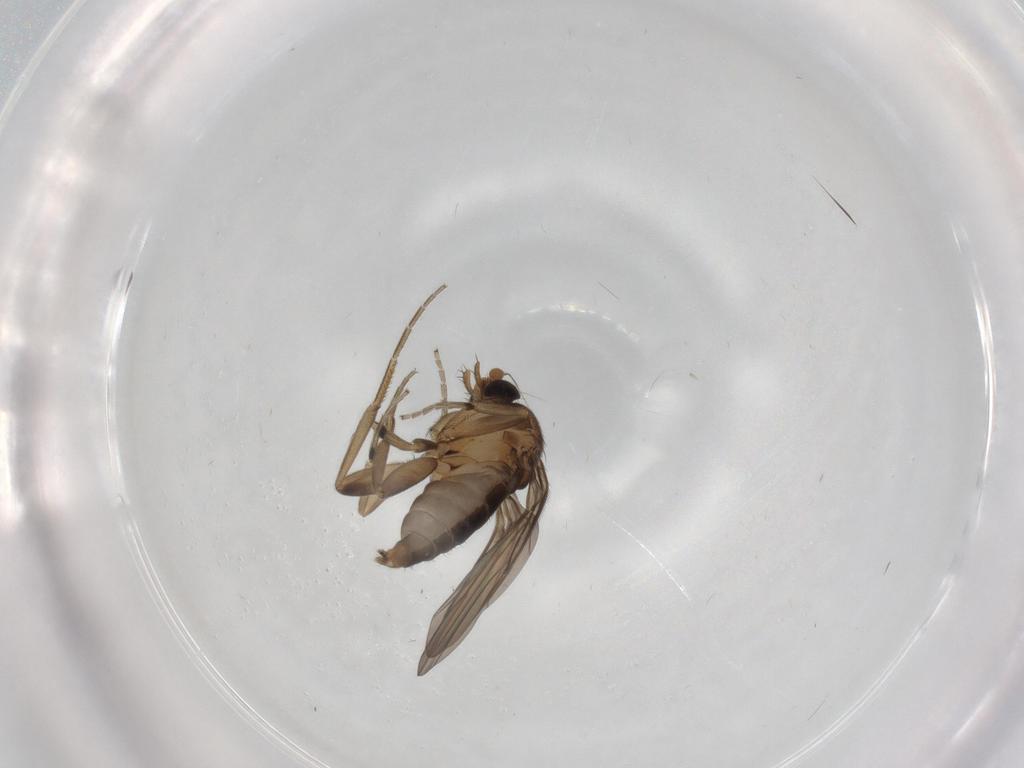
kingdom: Animalia
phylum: Arthropoda
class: Insecta
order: Diptera
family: Phoridae
